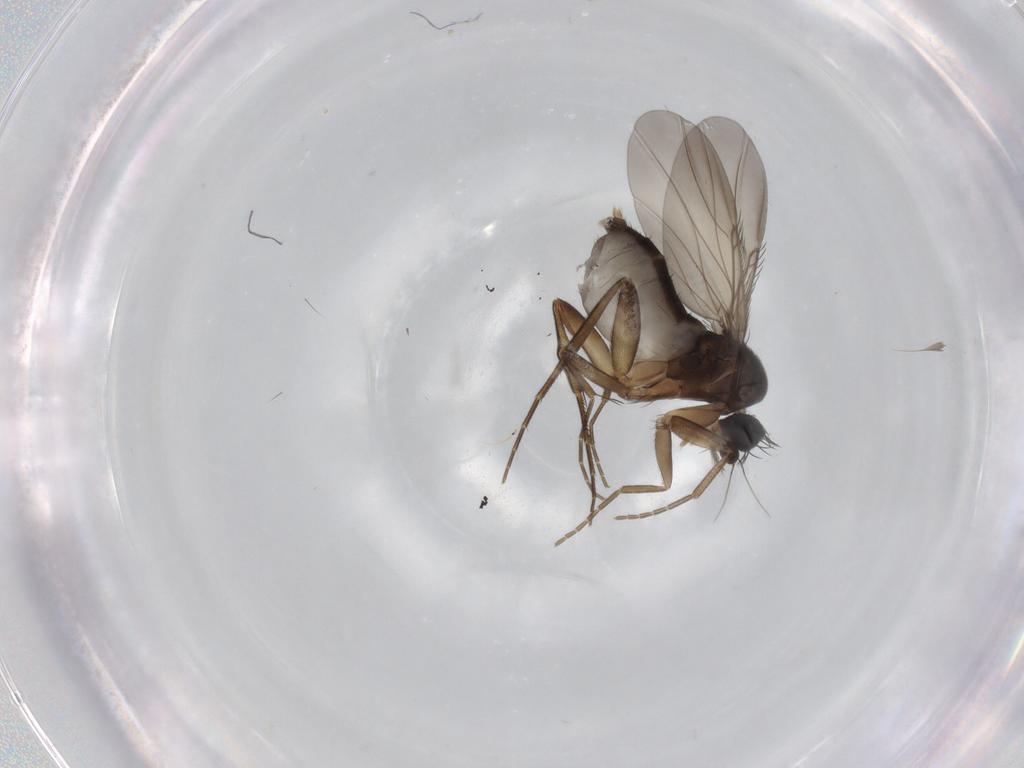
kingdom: Animalia
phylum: Arthropoda
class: Insecta
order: Diptera
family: Phoridae
